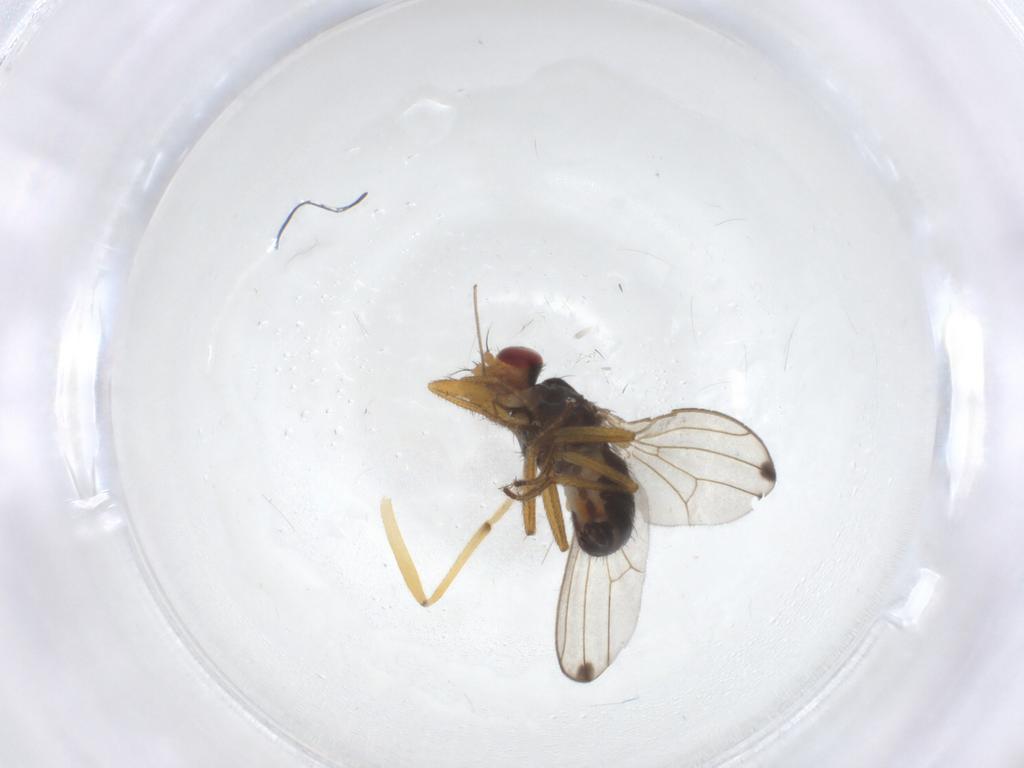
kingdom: Animalia
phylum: Arthropoda
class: Insecta
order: Diptera
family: Drosophilidae
